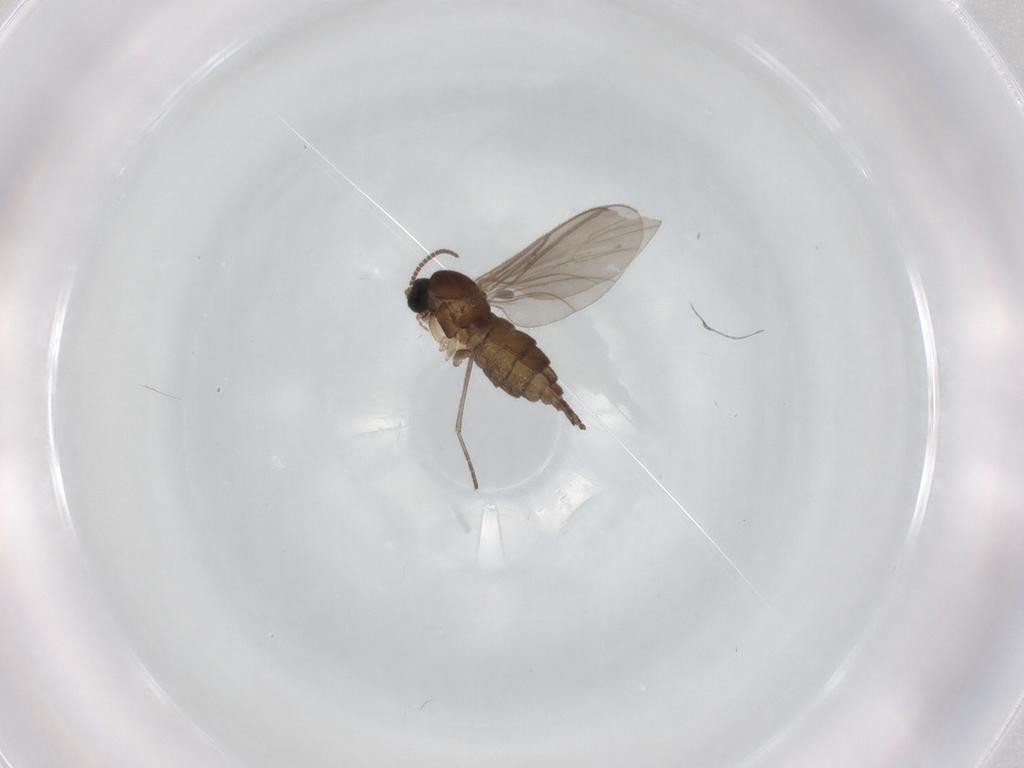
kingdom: Animalia
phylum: Arthropoda
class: Insecta
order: Diptera
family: Sciaridae
